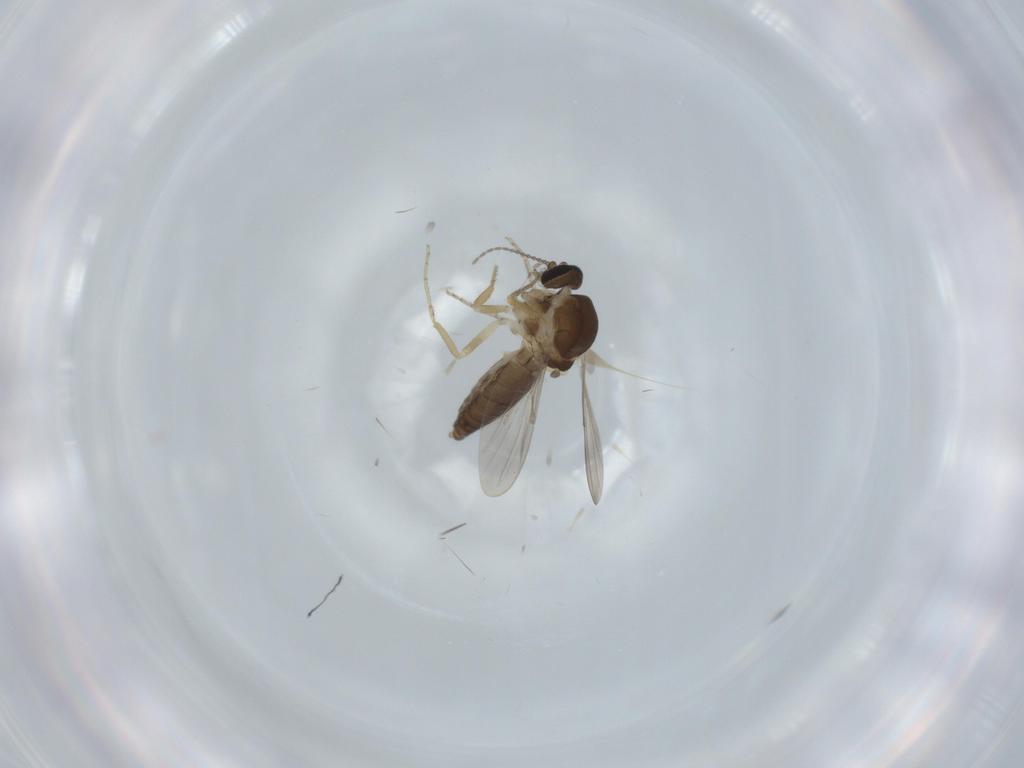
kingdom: Animalia
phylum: Arthropoda
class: Insecta
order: Diptera
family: Ceratopogonidae
